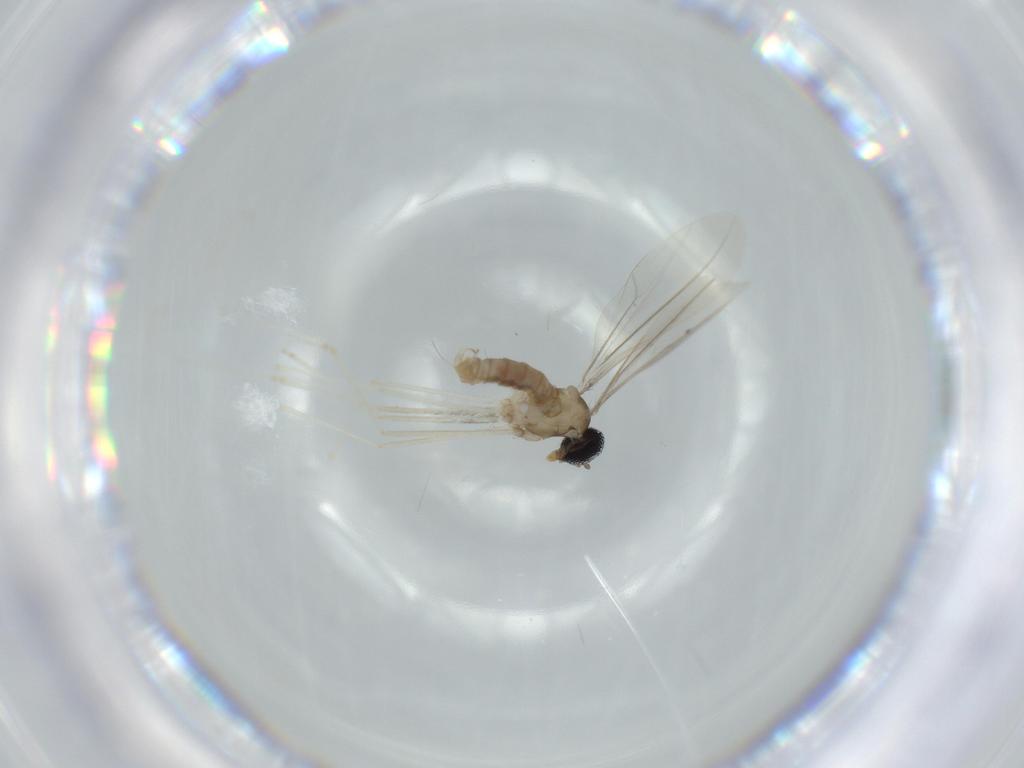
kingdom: Animalia
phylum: Arthropoda
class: Insecta
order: Diptera
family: Cecidomyiidae
